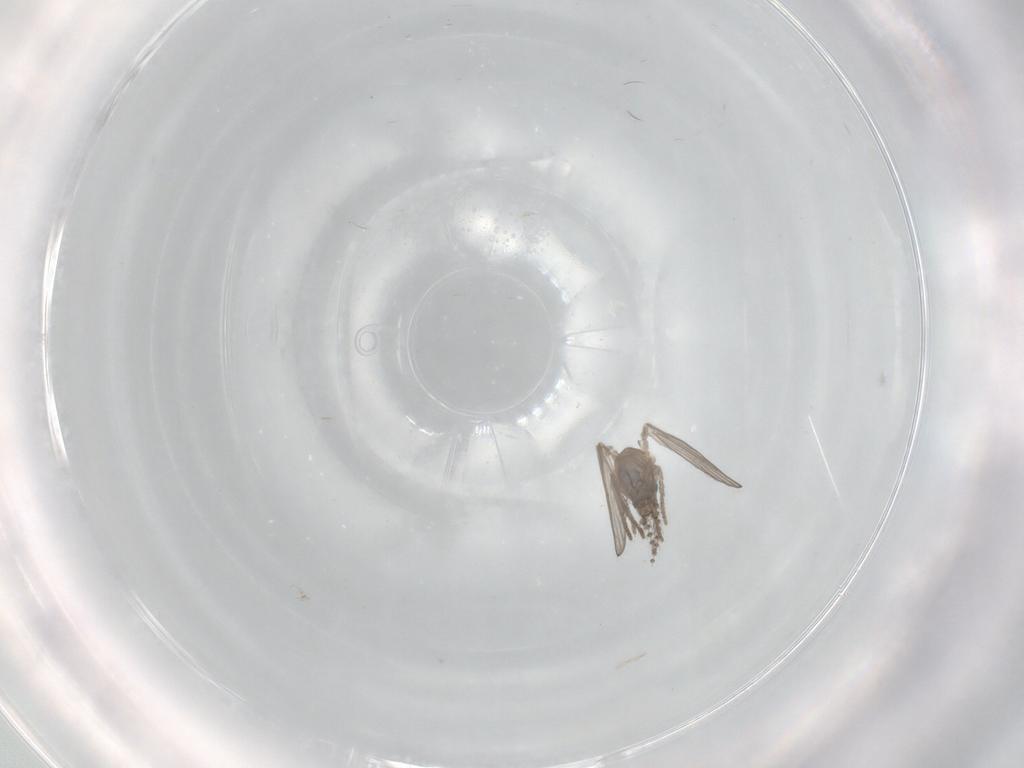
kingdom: Animalia
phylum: Arthropoda
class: Insecta
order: Diptera
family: Cecidomyiidae
